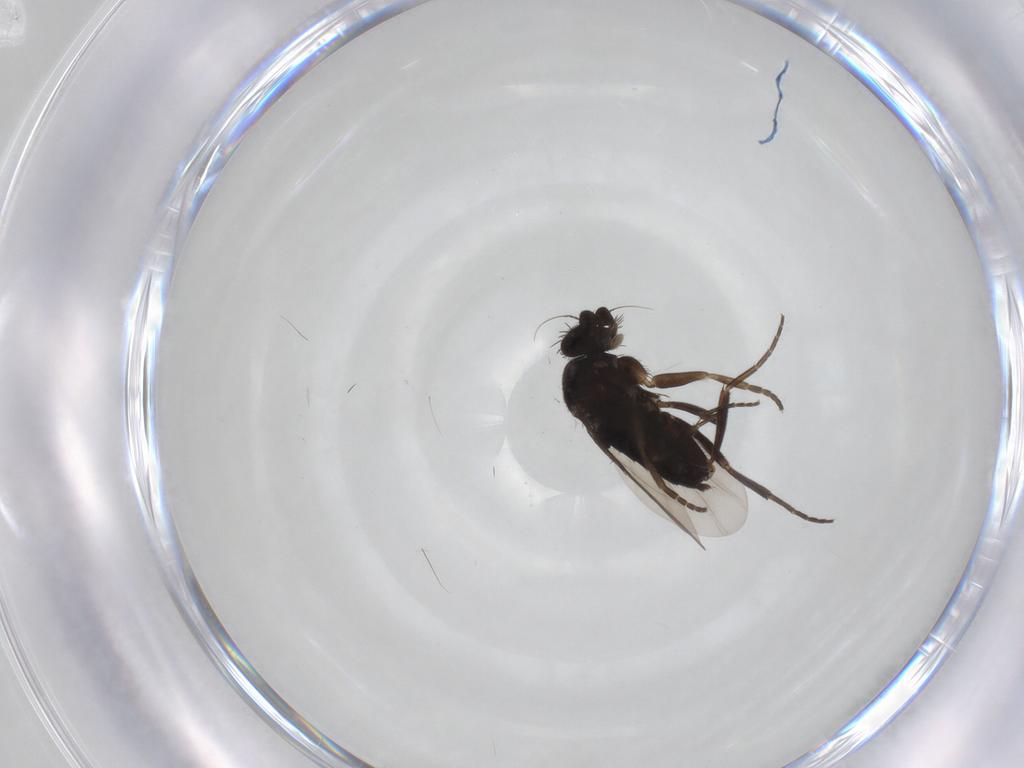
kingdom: Animalia
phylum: Arthropoda
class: Insecta
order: Diptera
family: Phoridae
